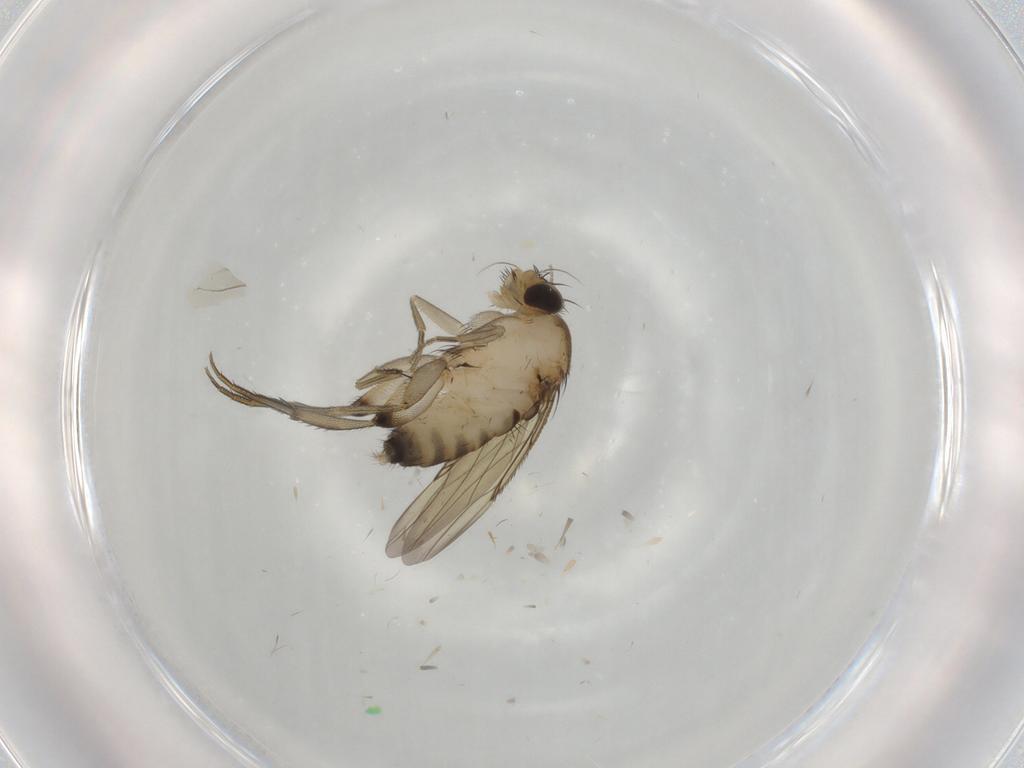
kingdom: Animalia
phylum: Arthropoda
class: Insecta
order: Diptera
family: Phoridae
